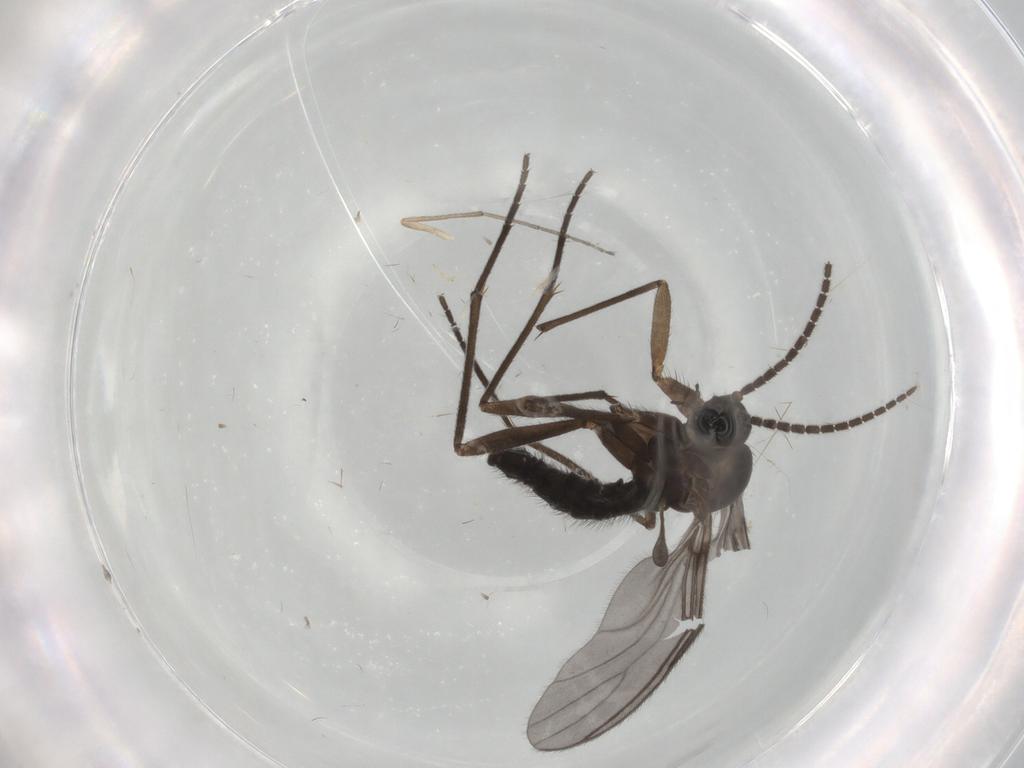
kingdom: Animalia
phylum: Arthropoda
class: Insecta
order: Diptera
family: Sciaridae
